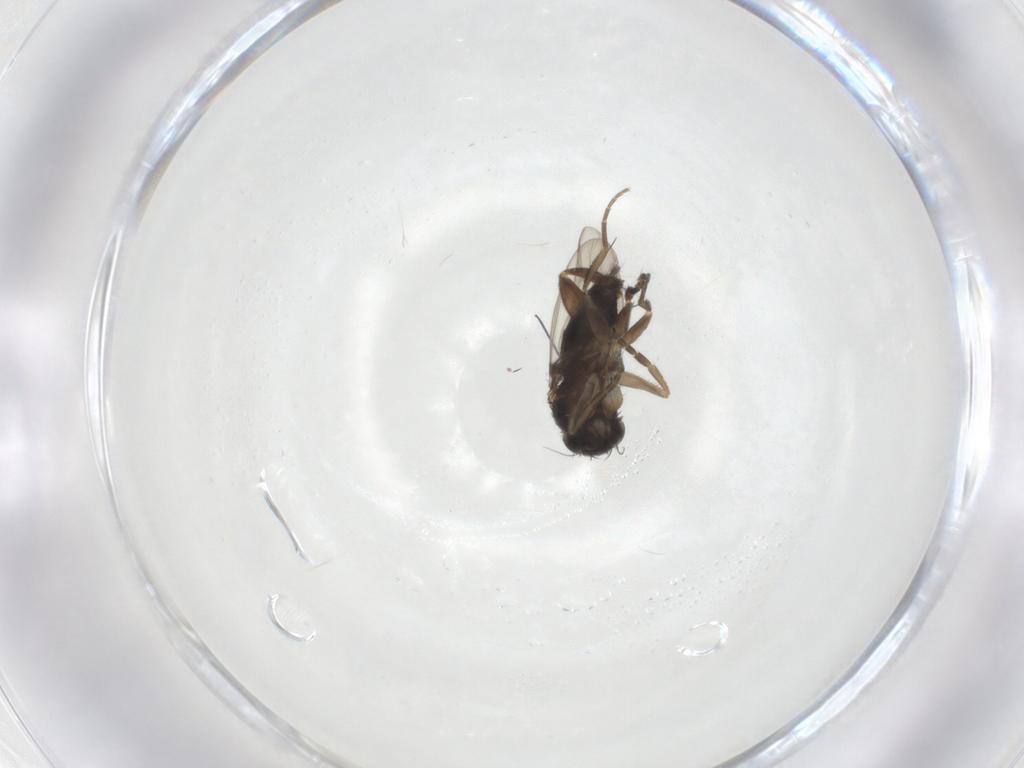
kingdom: Animalia
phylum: Arthropoda
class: Insecta
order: Diptera
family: Phoridae
